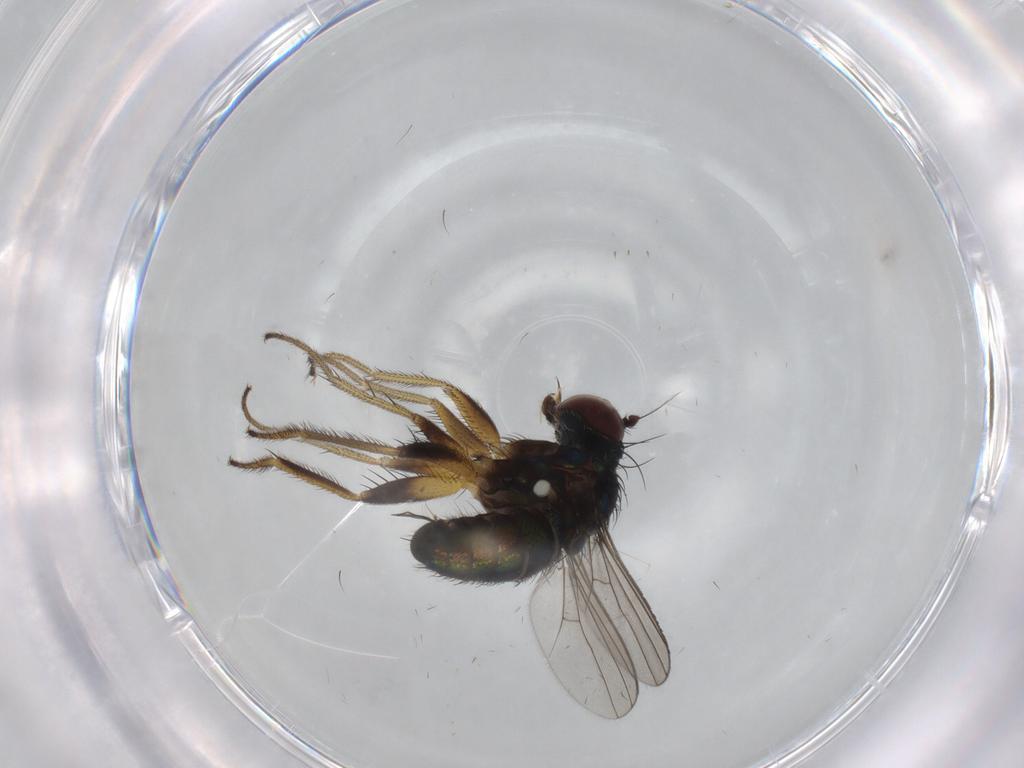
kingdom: Animalia
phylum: Arthropoda
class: Insecta
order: Diptera
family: Dolichopodidae
